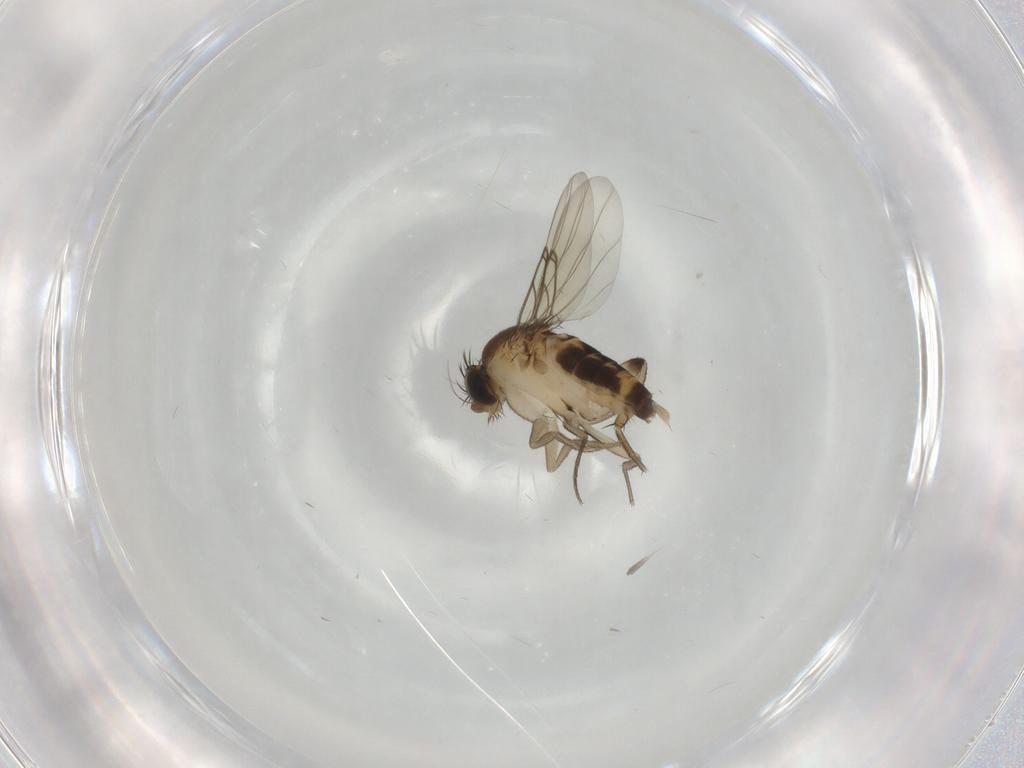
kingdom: Animalia
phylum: Arthropoda
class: Insecta
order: Diptera
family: Chironomidae
